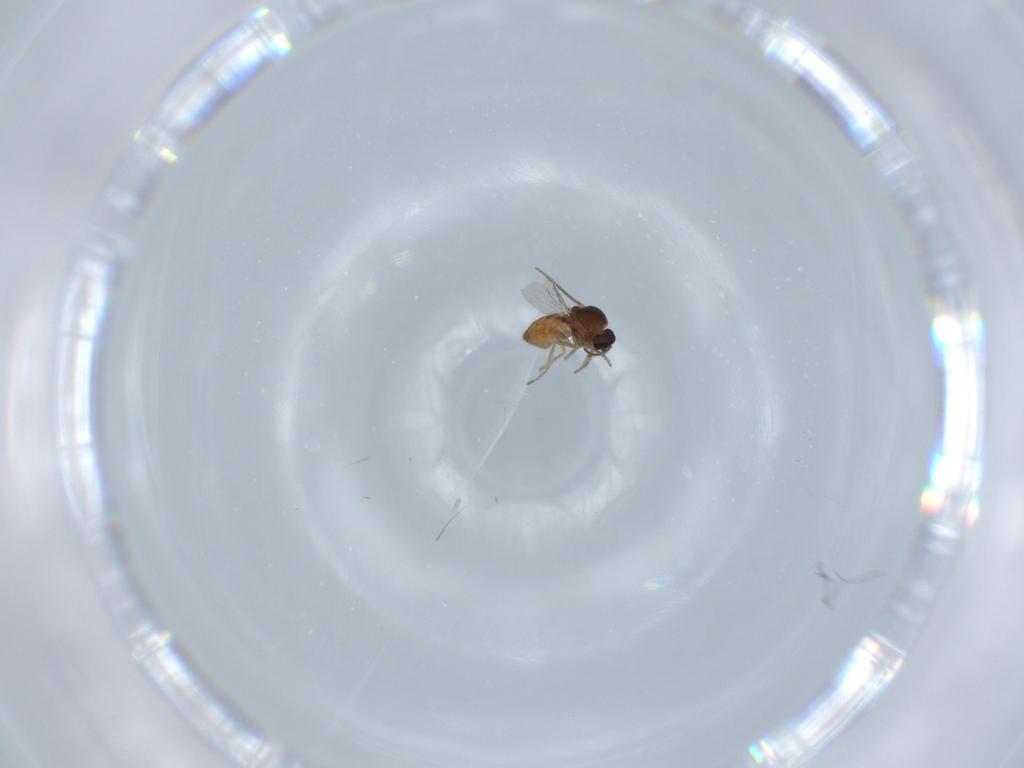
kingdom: Animalia
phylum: Arthropoda
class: Insecta
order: Diptera
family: Ceratopogonidae
